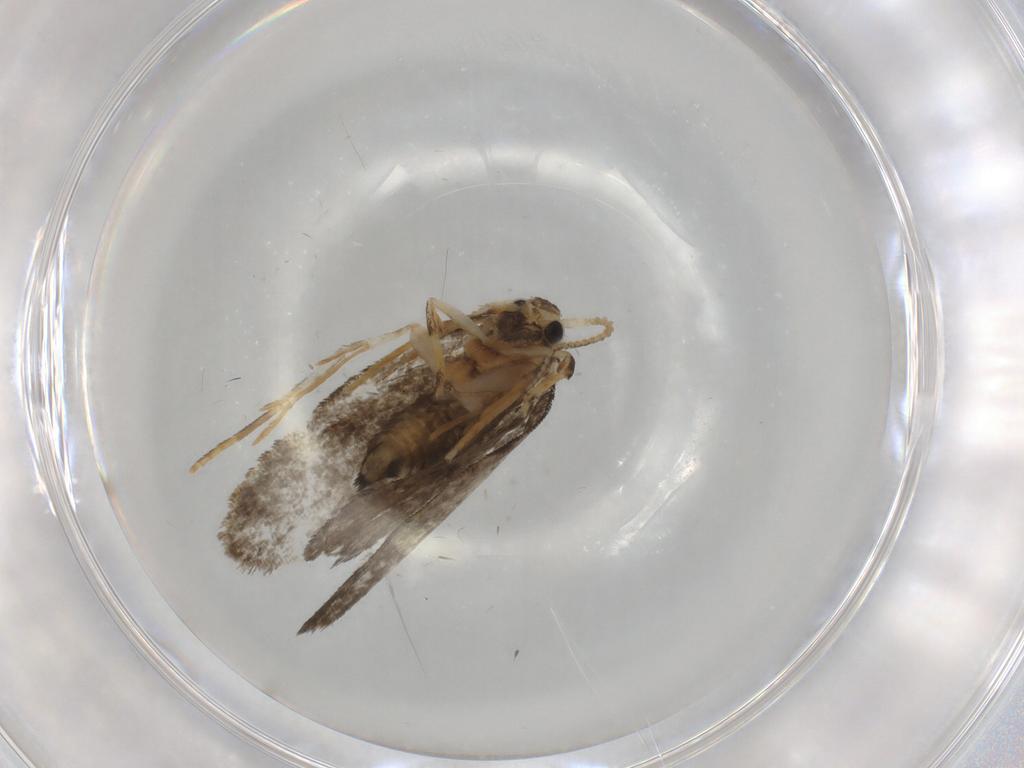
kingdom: Animalia
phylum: Arthropoda
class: Insecta
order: Lepidoptera
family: Psychidae
